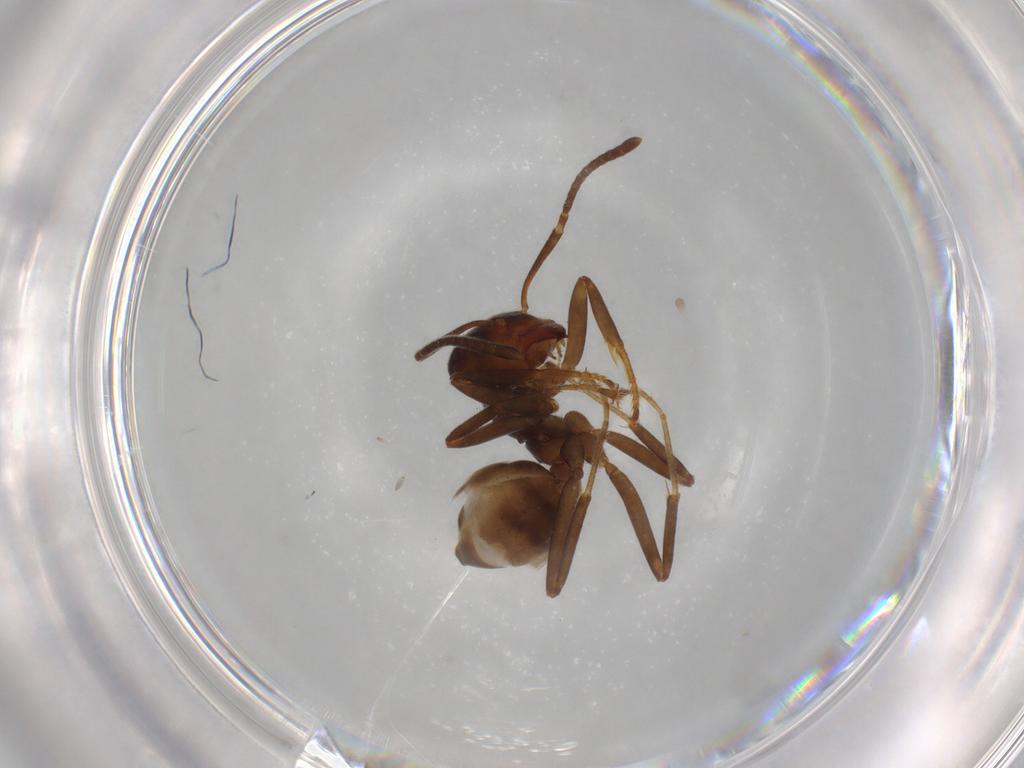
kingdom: Animalia
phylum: Arthropoda
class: Insecta
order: Hymenoptera
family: Formicidae
